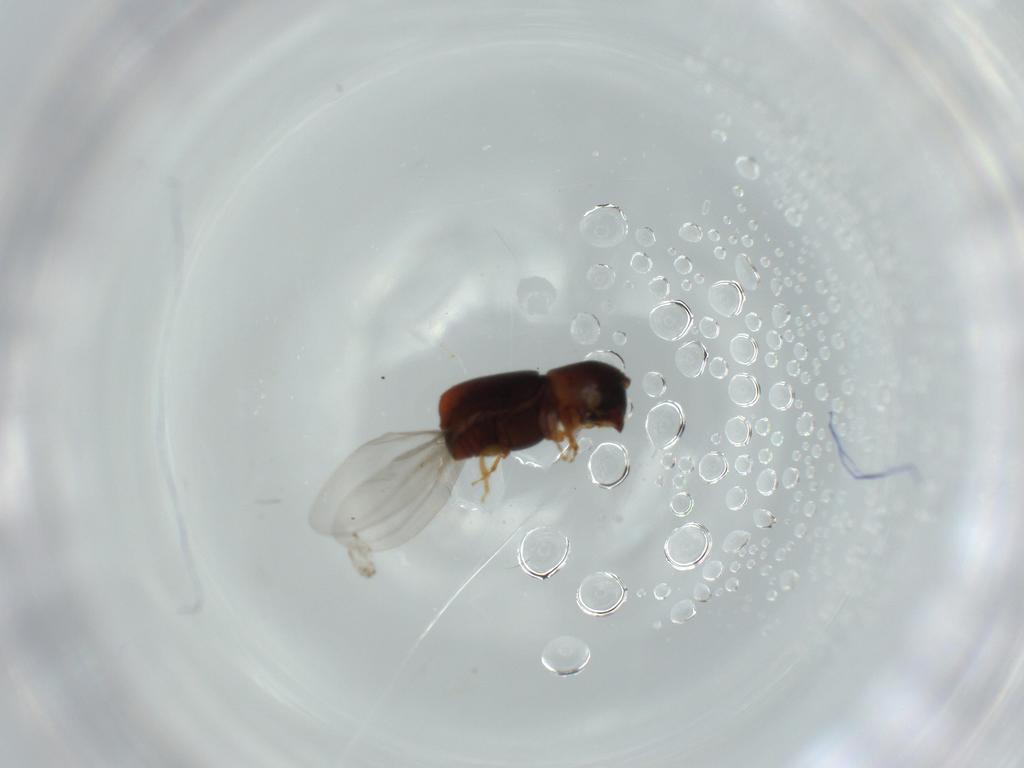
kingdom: Animalia
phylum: Arthropoda
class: Insecta
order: Coleoptera
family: Curculionidae
